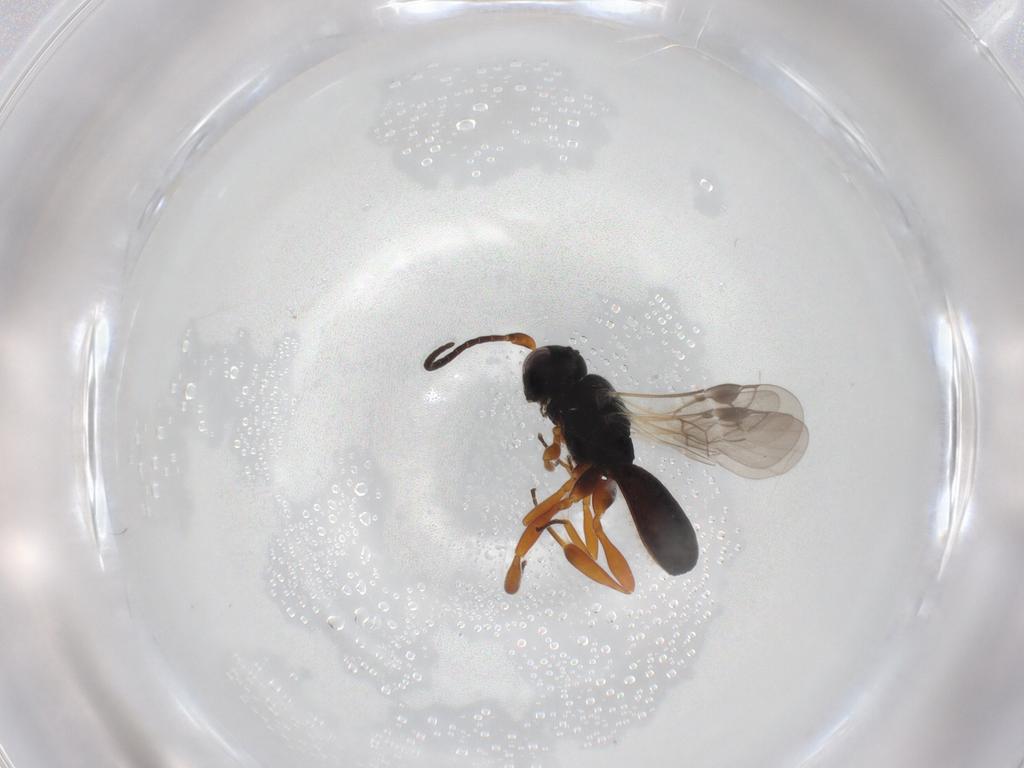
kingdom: Animalia
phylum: Arthropoda
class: Insecta
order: Hymenoptera
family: Braconidae
